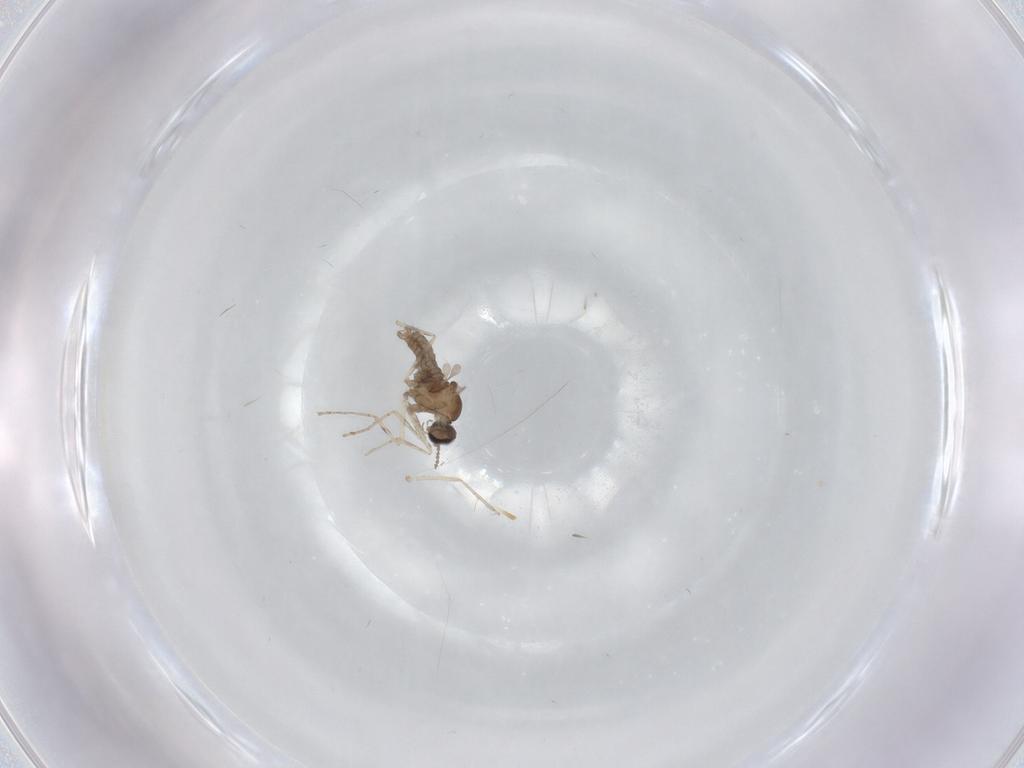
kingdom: Animalia
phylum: Arthropoda
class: Insecta
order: Diptera
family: Cecidomyiidae
